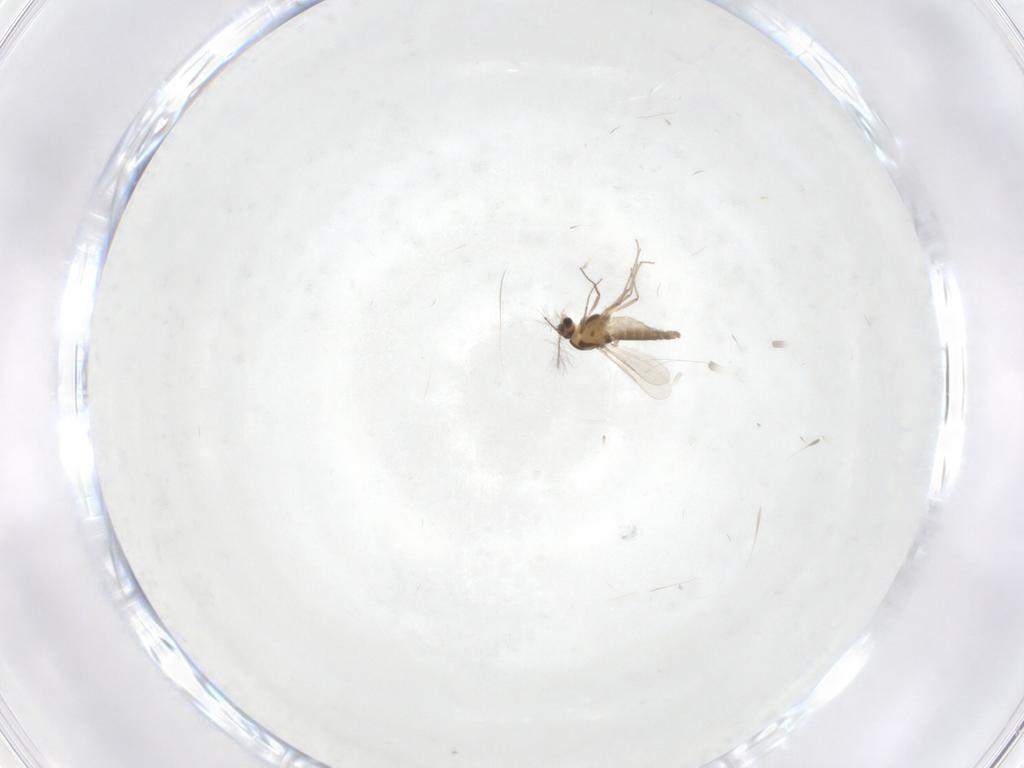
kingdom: Animalia
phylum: Arthropoda
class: Insecta
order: Diptera
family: Chironomidae
